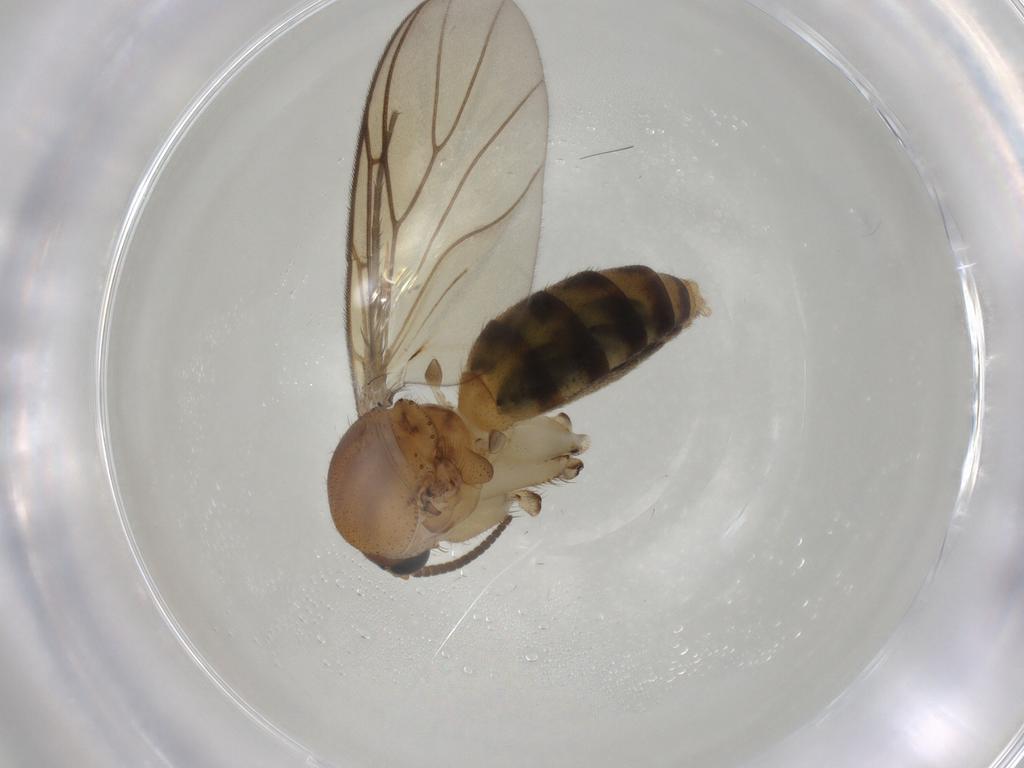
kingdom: Animalia
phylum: Arthropoda
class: Insecta
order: Diptera
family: Mycetophilidae
